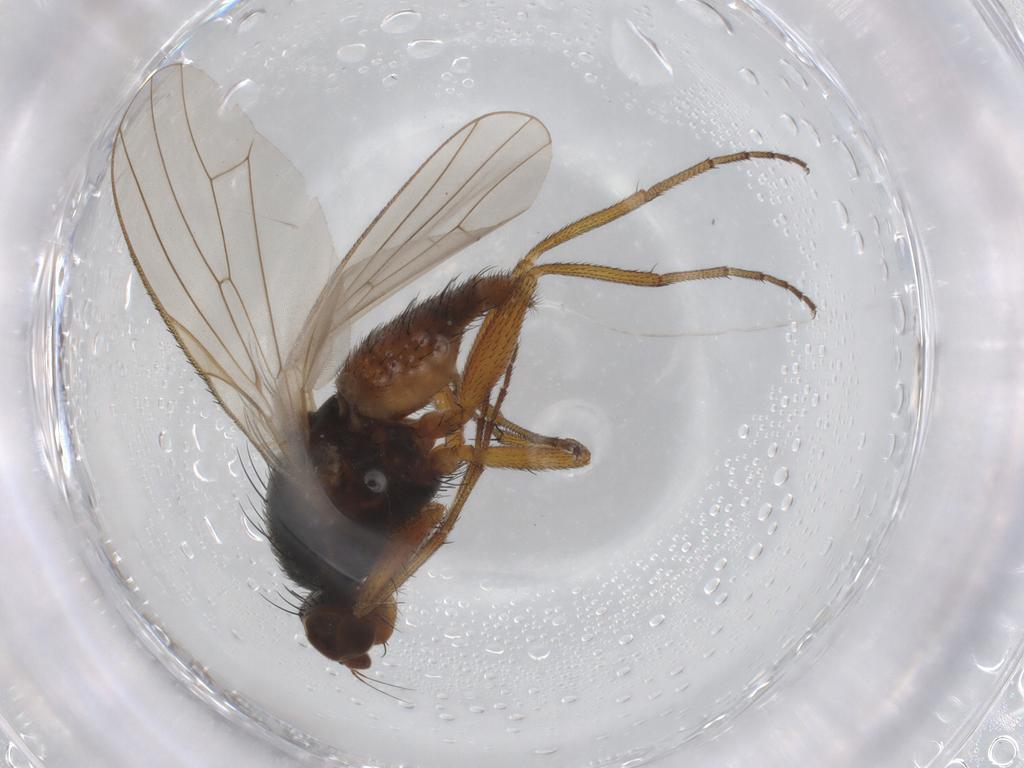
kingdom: Animalia
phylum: Arthropoda
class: Insecta
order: Diptera
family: Heleomyzidae
